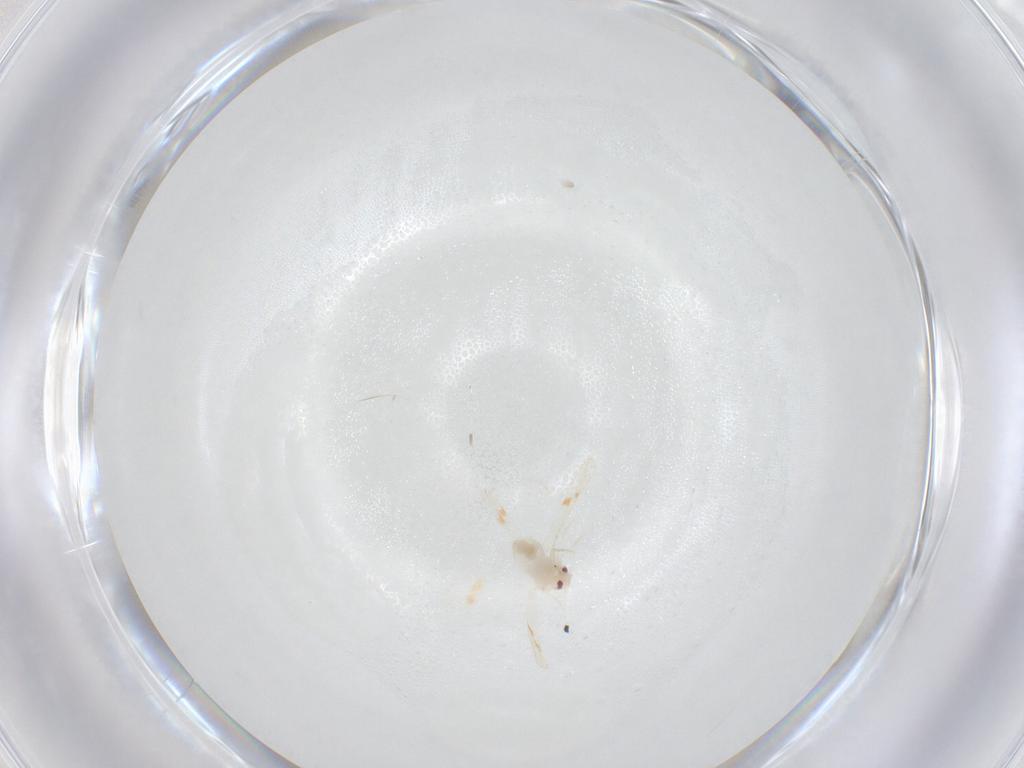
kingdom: Animalia
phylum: Arthropoda
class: Insecta
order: Hemiptera
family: Aleyrodidae
